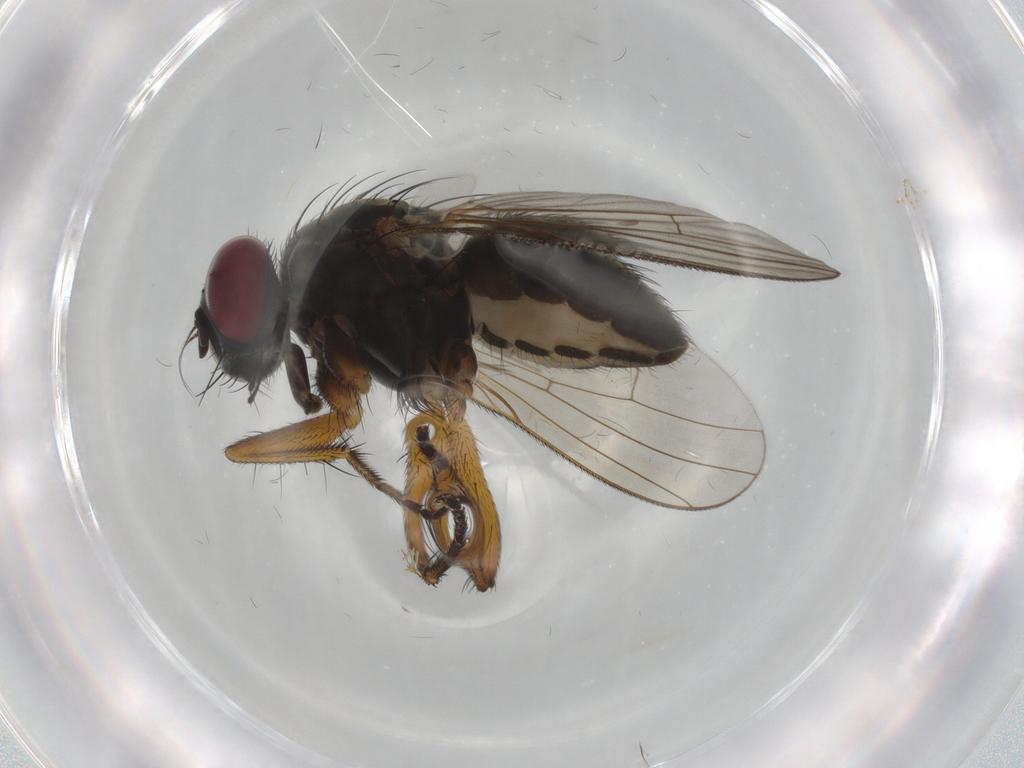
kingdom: Animalia
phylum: Arthropoda
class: Insecta
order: Diptera
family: Muscidae
